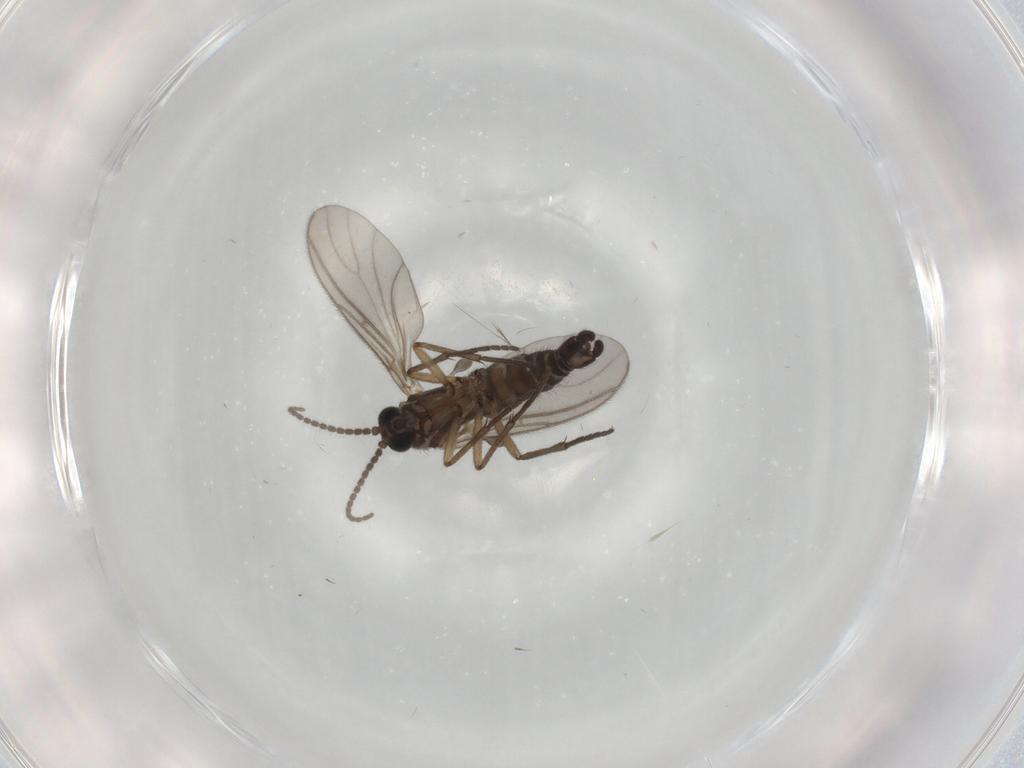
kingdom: Animalia
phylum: Arthropoda
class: Insecta
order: Diptera
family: Sciaridae
